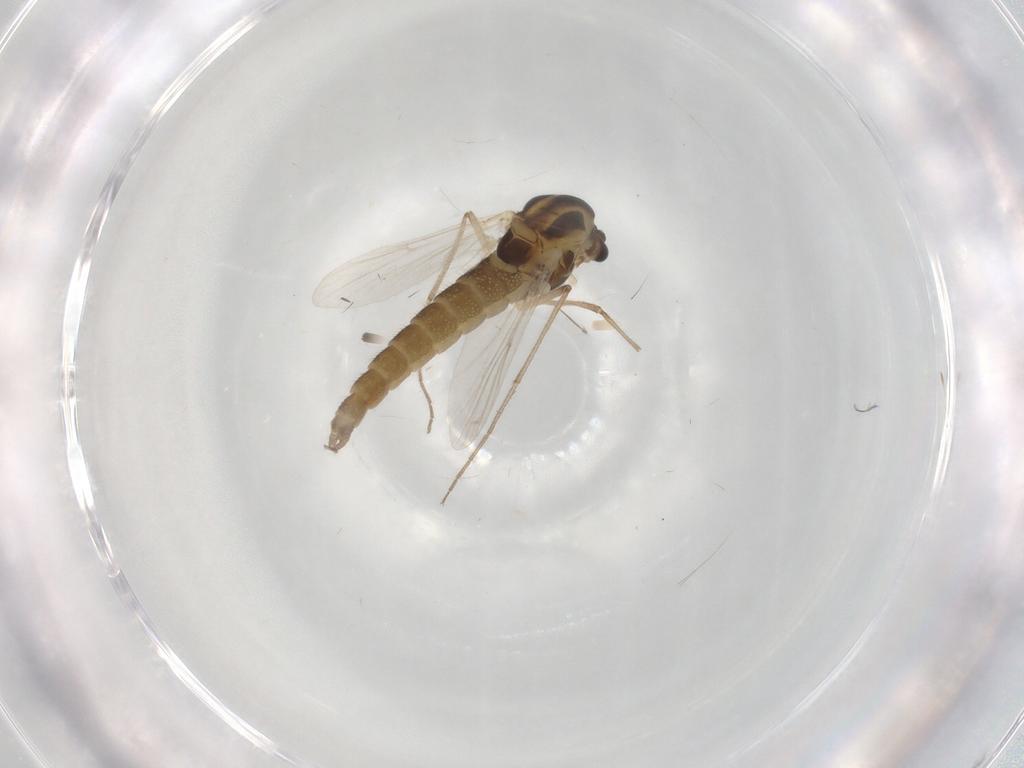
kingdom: Animalia
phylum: Arthropoda
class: Insecta
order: Diptera
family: Chironomidae
